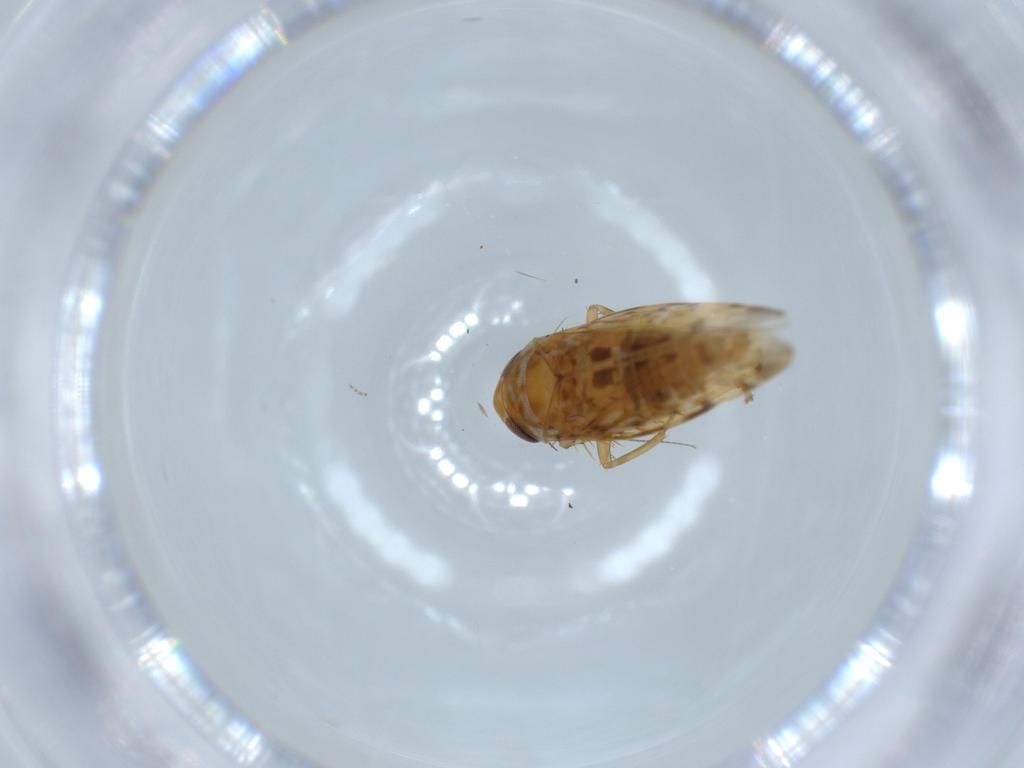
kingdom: Animalia
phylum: Arthropoda
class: Insecta
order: Hemiptera
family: Cicadellidae
